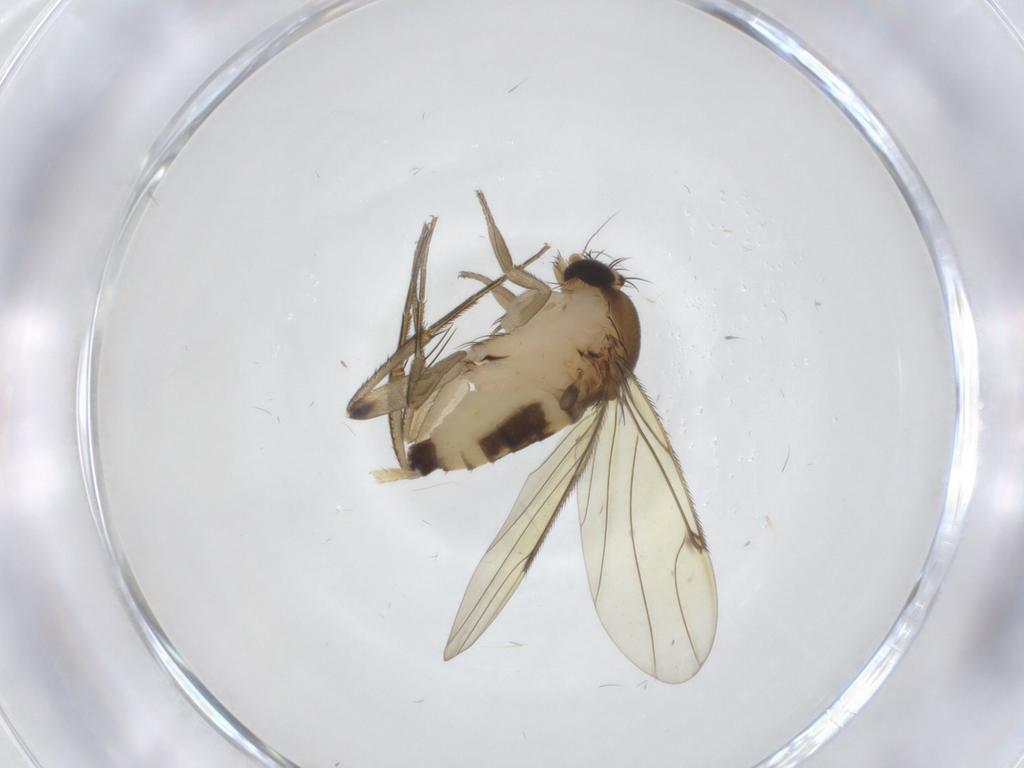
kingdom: Animalia
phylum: Arthropoda
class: Insecta
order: Diptera
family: Phoridae
